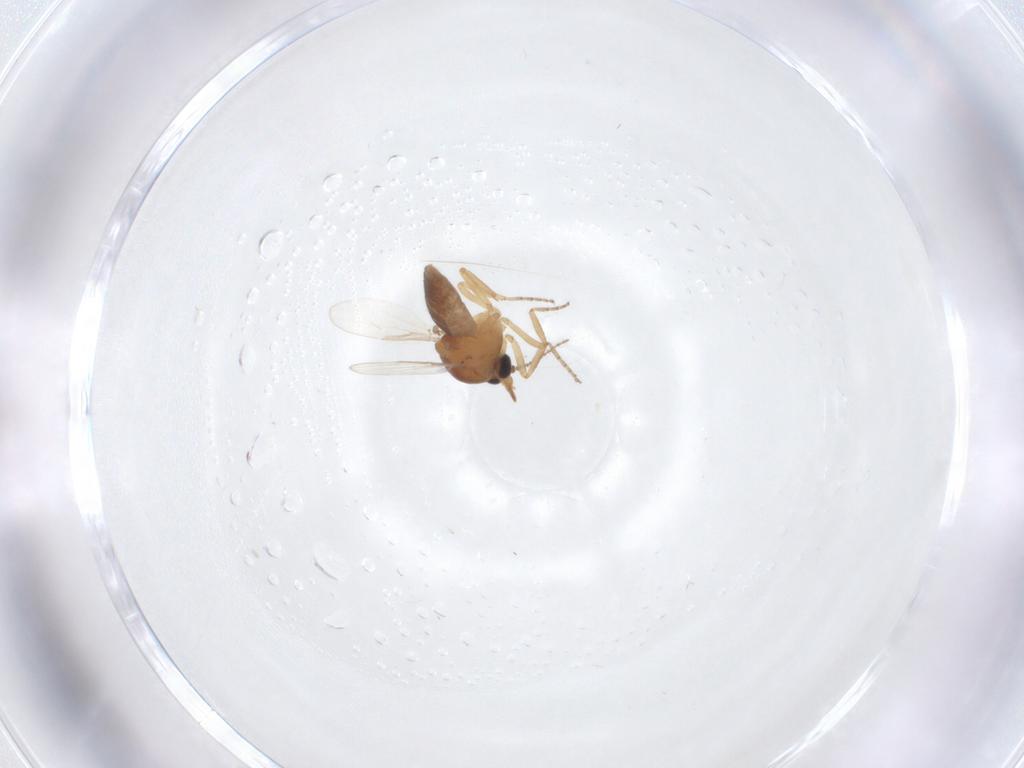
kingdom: Animalia
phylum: Arthropoda
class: Insecta
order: Diptera
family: Ceratopogonidae
